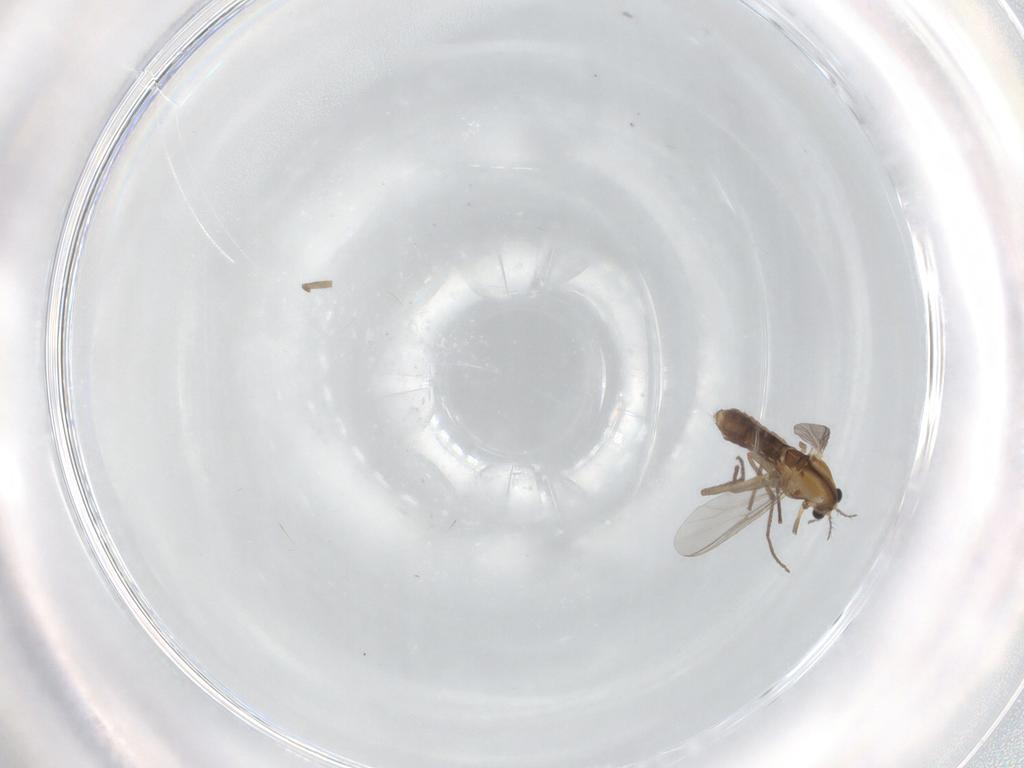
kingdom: Animalia
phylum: Arthropoda
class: Insecta
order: Diptera
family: Chironomidae
